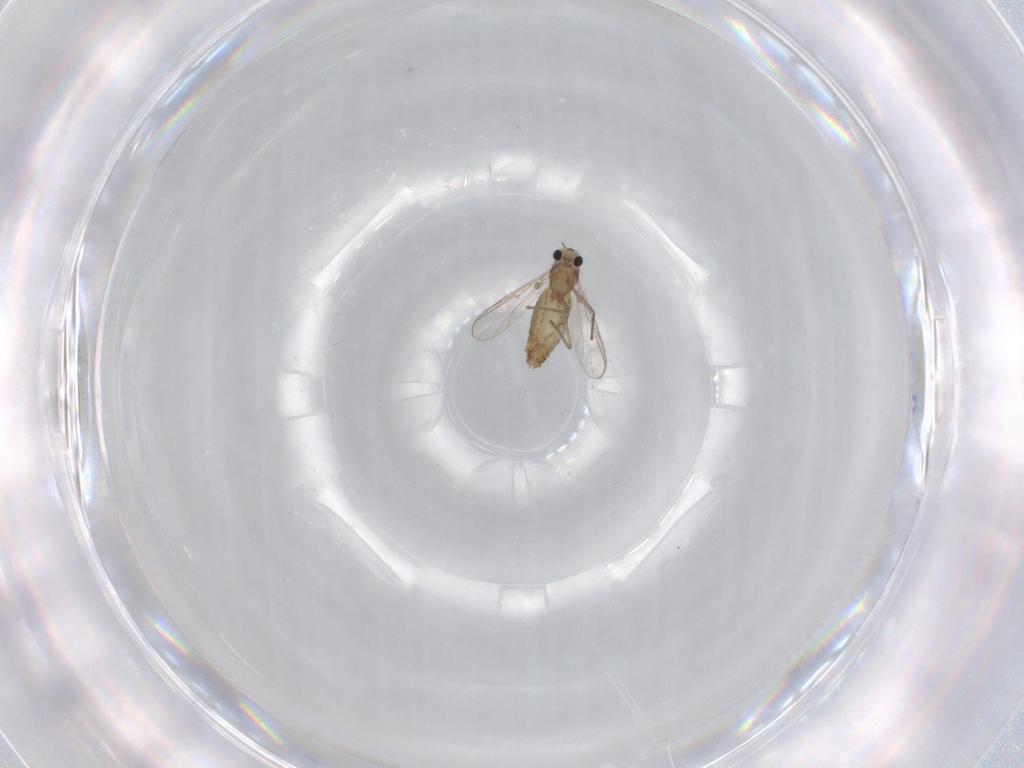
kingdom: Animalia
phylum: Arthropoda
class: Insecta
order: Diptera
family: Chironomidae
